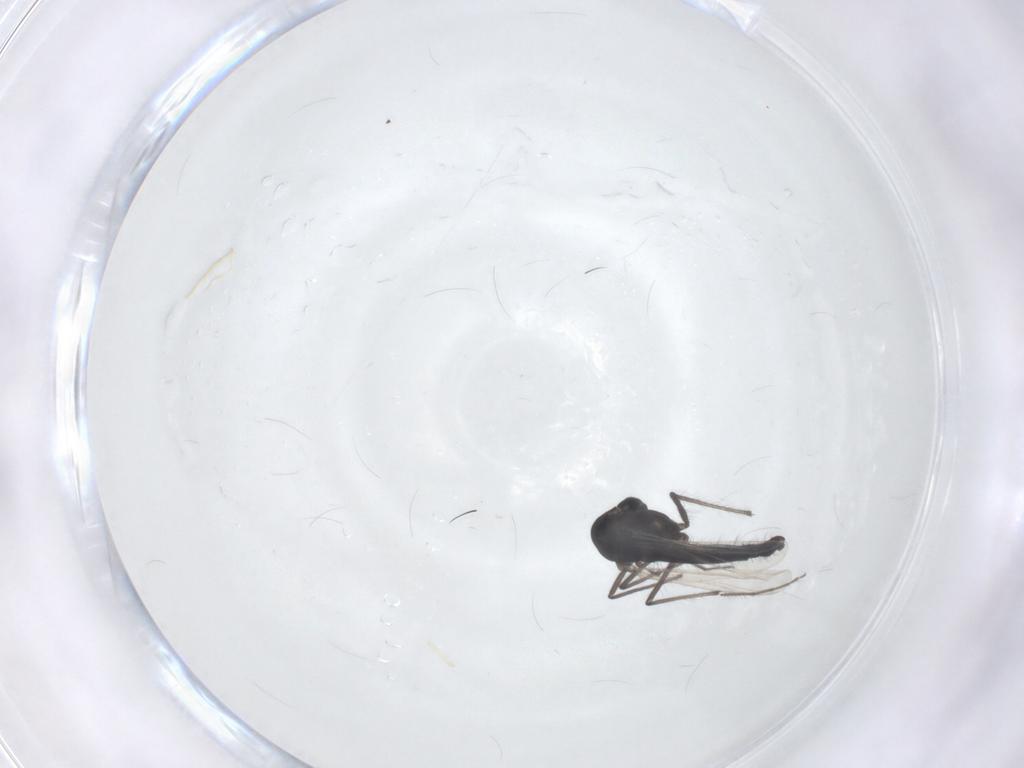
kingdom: Animalia
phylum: Arthropoda
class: Insecta
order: Diptera
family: Chironomidae
